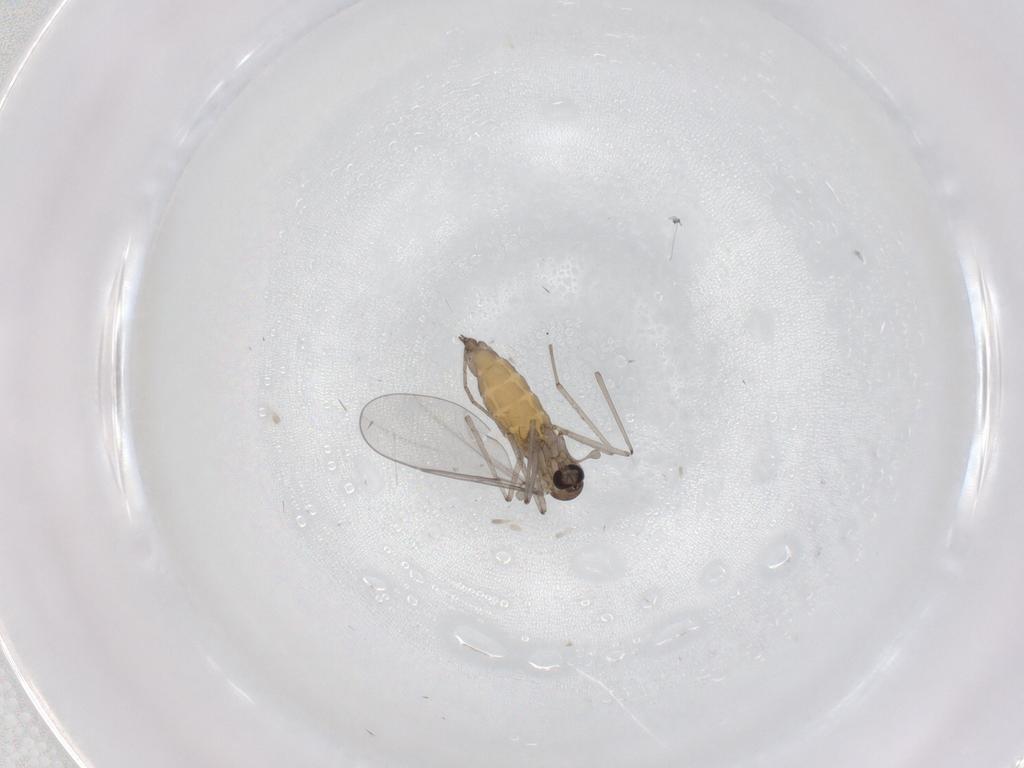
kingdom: Animalia
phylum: Arthropoda
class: Insecta
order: Diptera
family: Cecidomyiidae
